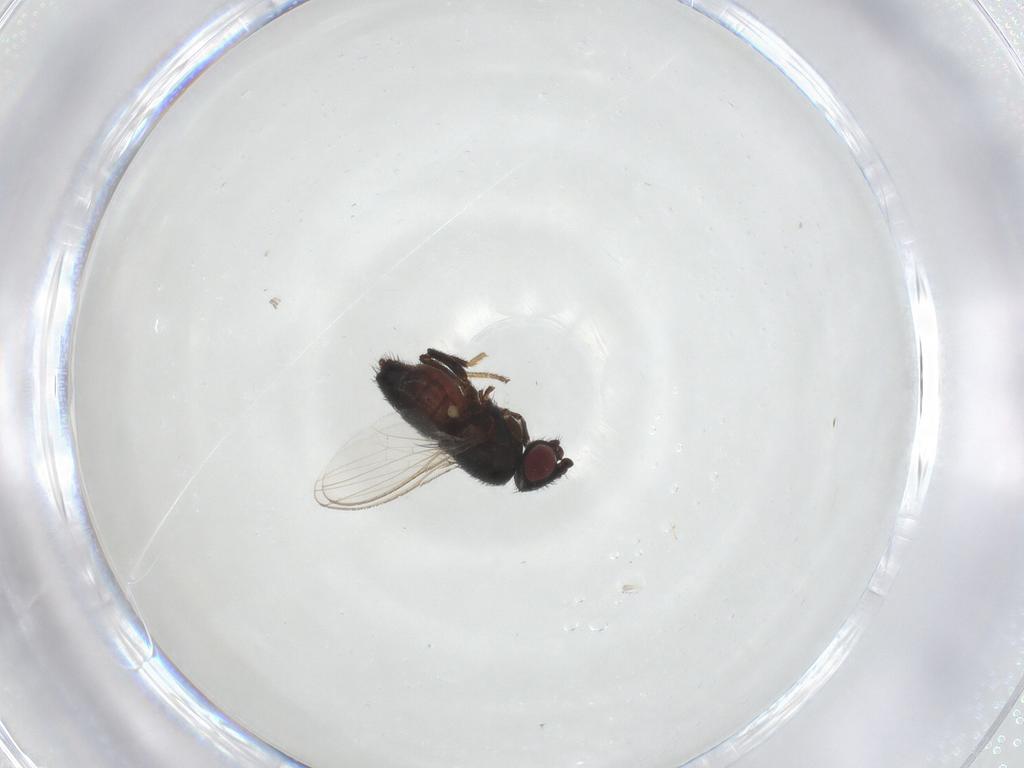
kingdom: Animalia
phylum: Arthropoda
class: Insecta
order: Diptera
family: Milichiidae
